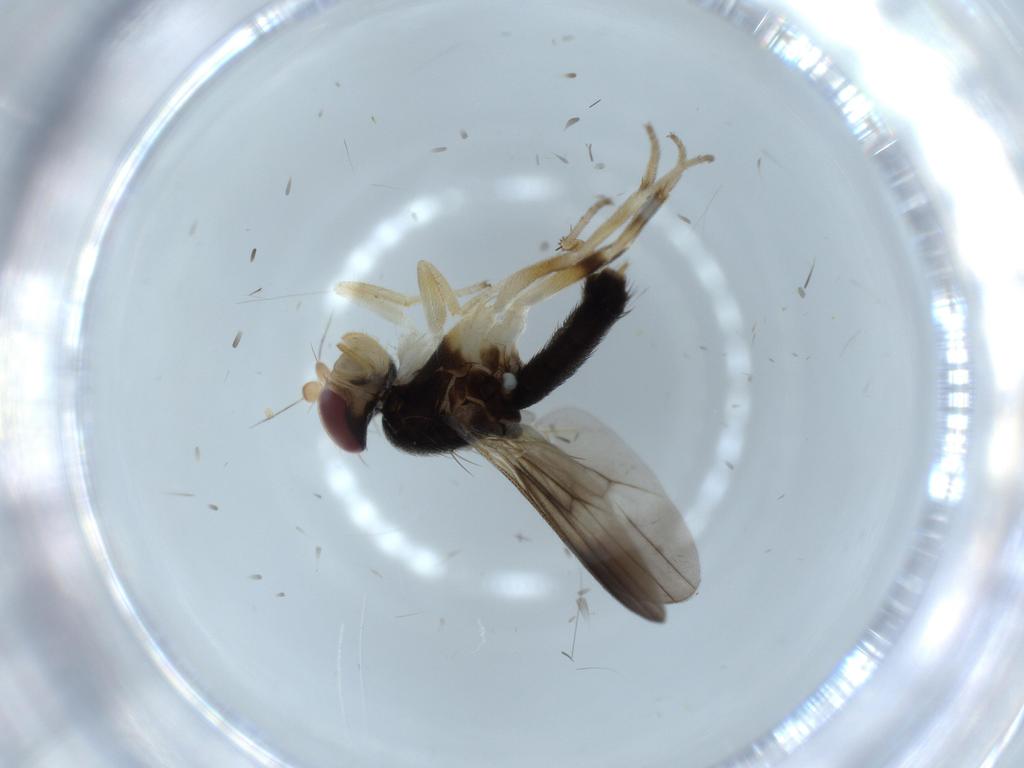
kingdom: Animalia
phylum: Arthropoda
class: Insecta
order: Diptera
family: Clusiidae
